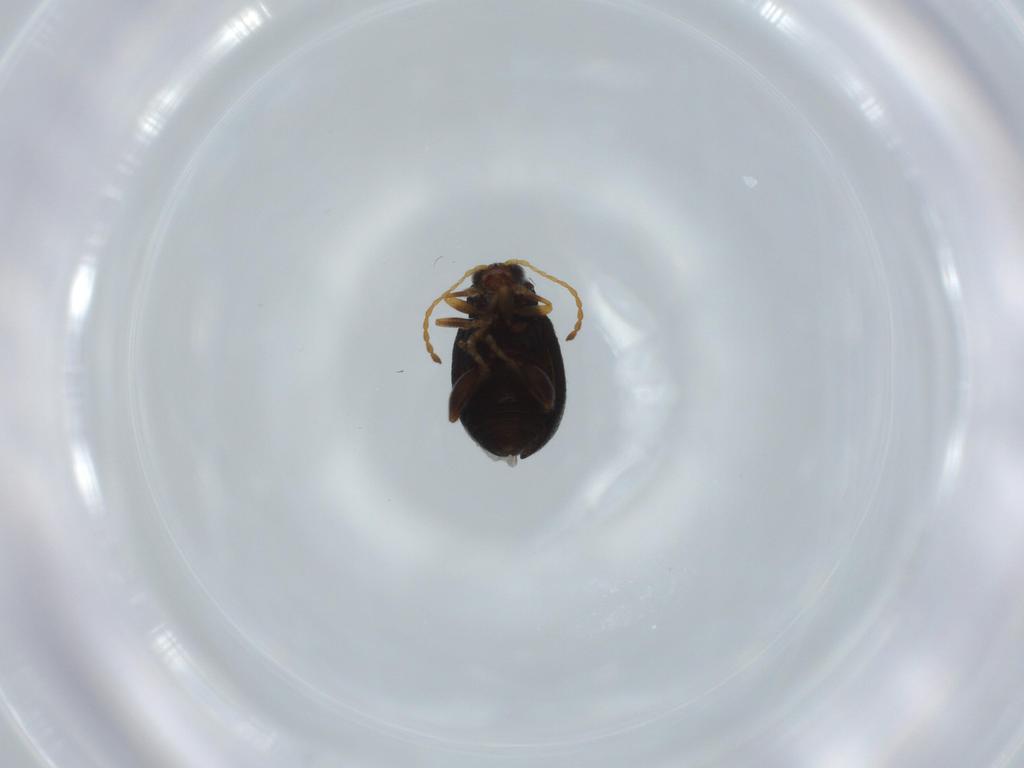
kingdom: Animalia
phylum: Arthropoda
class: Insecta
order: Coleoptera
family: Chrysomelidae
